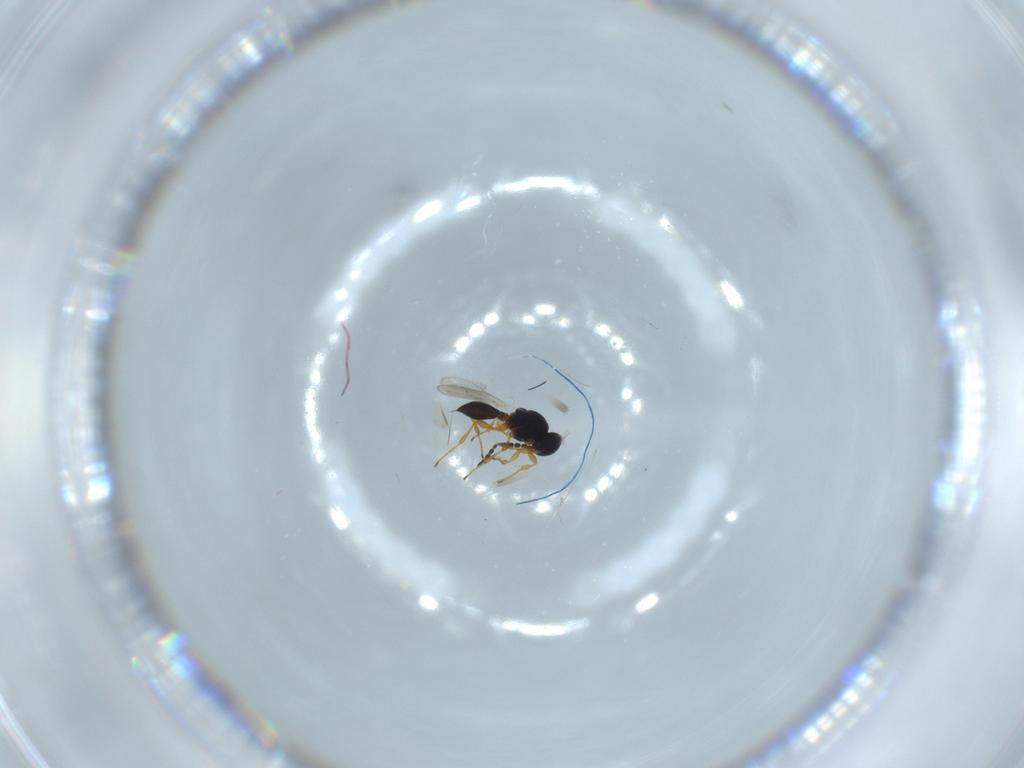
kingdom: Animalia
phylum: Arthropoda
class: Insecta
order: Hymenoptera
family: Platygastridae
